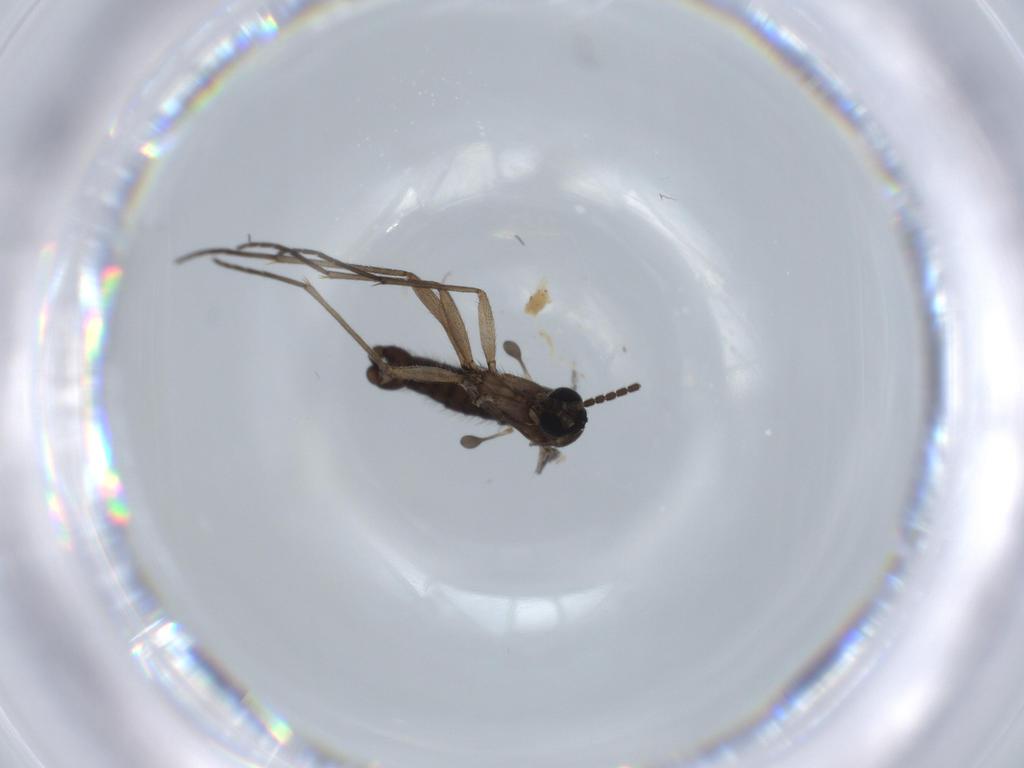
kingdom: Animalia
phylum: Arthropoda
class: Insecta
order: Diptera
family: Sciaridae
